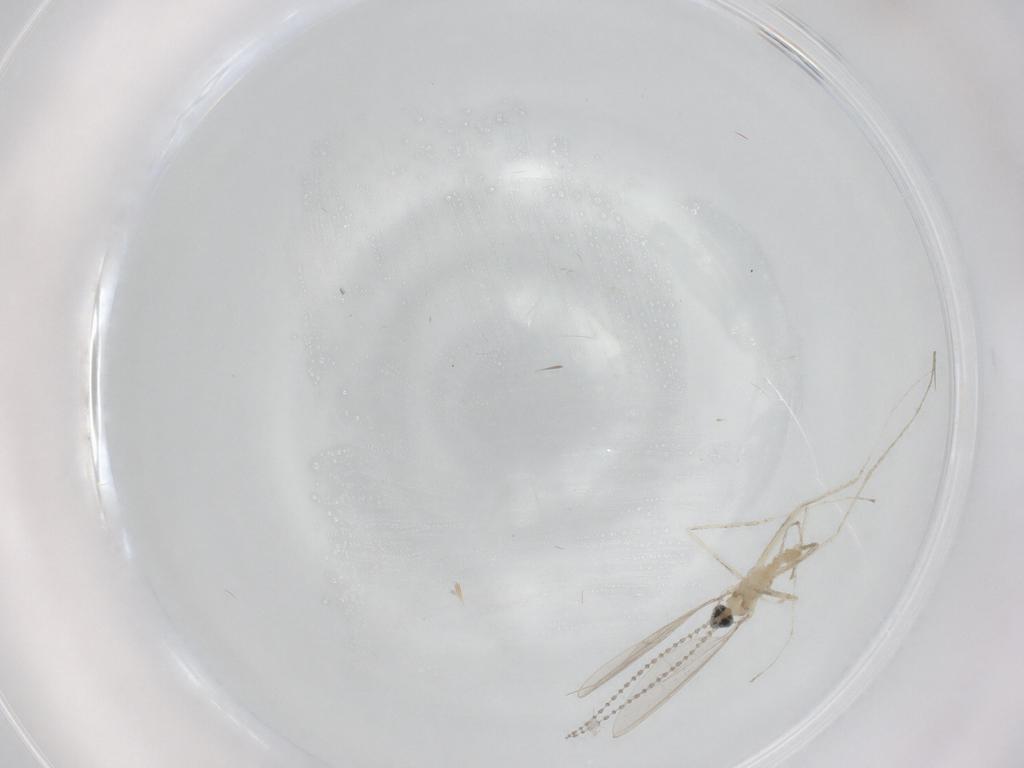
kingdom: Animalia
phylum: Arthropoda
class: Insecta
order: Diptera
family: Cecidomyiidae
